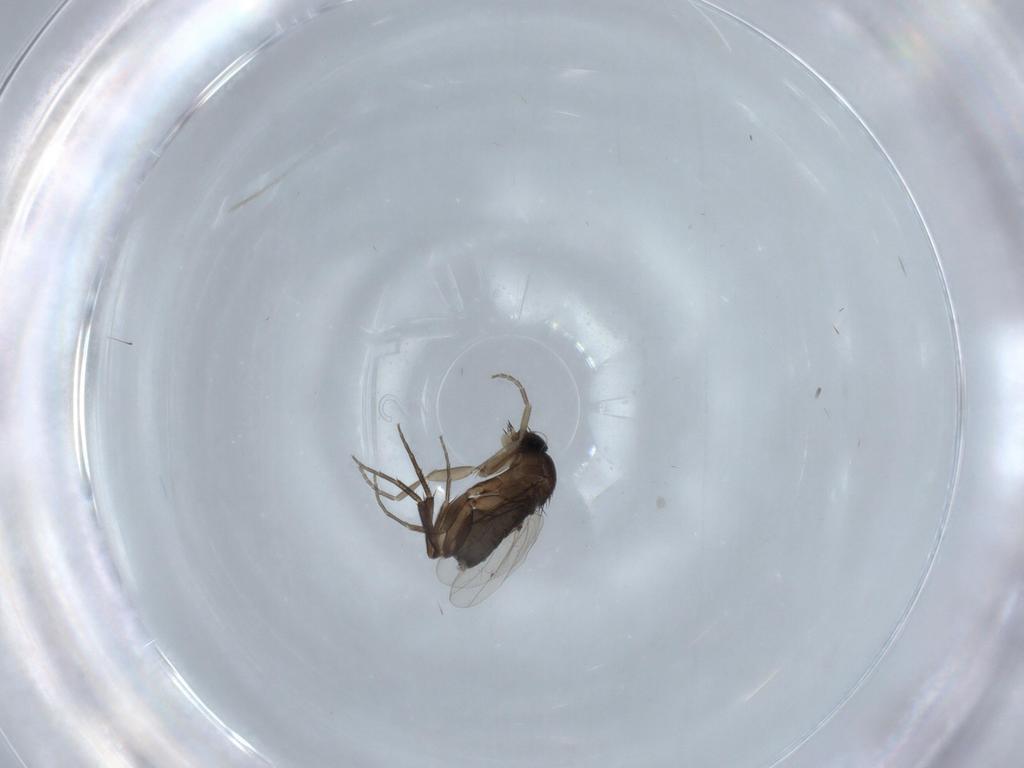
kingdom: Animalia
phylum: Arthropoda
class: Insecta
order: Diptera
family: Phoridae
